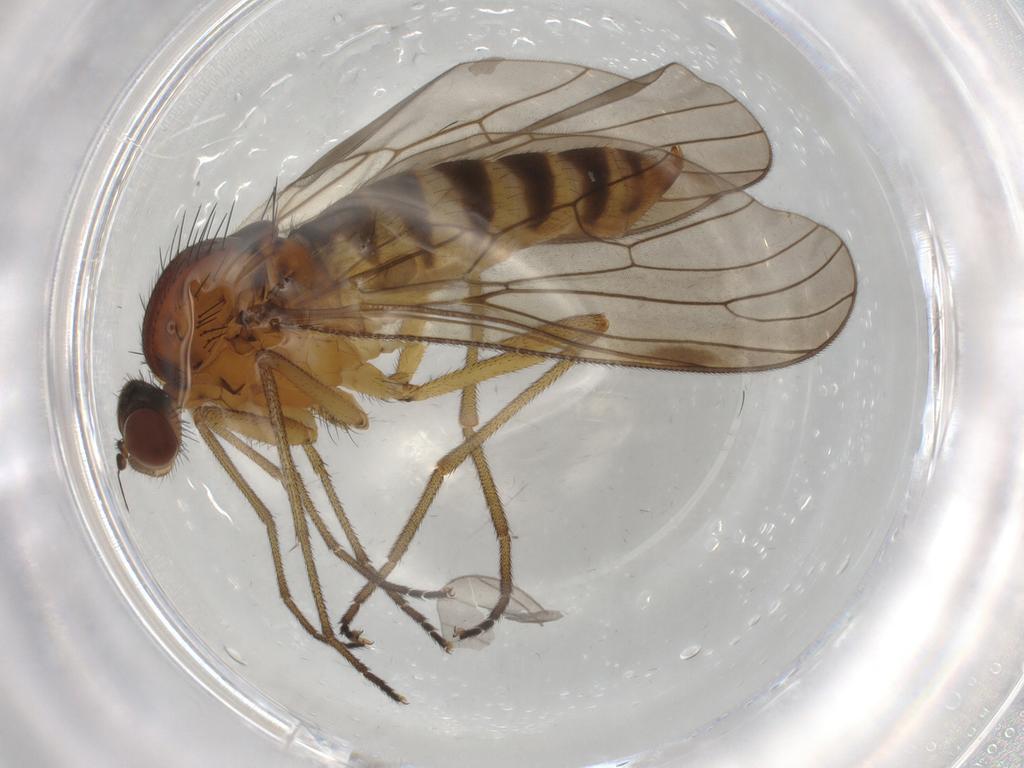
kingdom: Animalia
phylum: Arthropoda
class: Insecta
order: Diptera
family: Brachystomatidae
